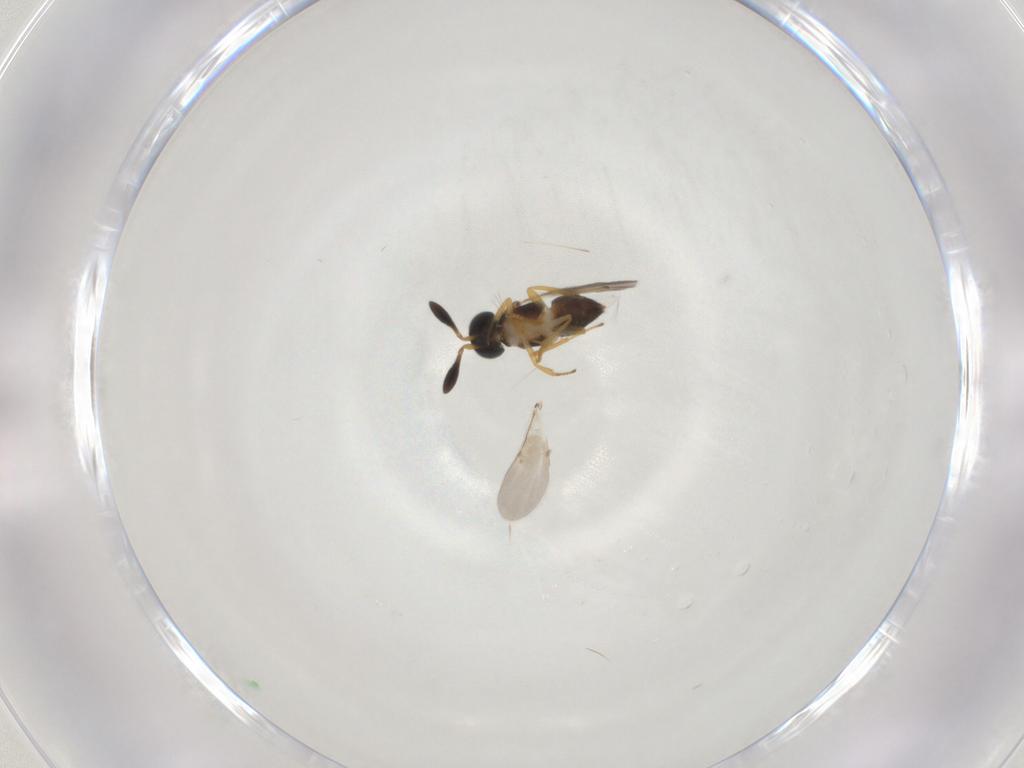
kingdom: Animalia
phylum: Arthropoda
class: Insecta
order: Hymenoptera
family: Encyrtidae
